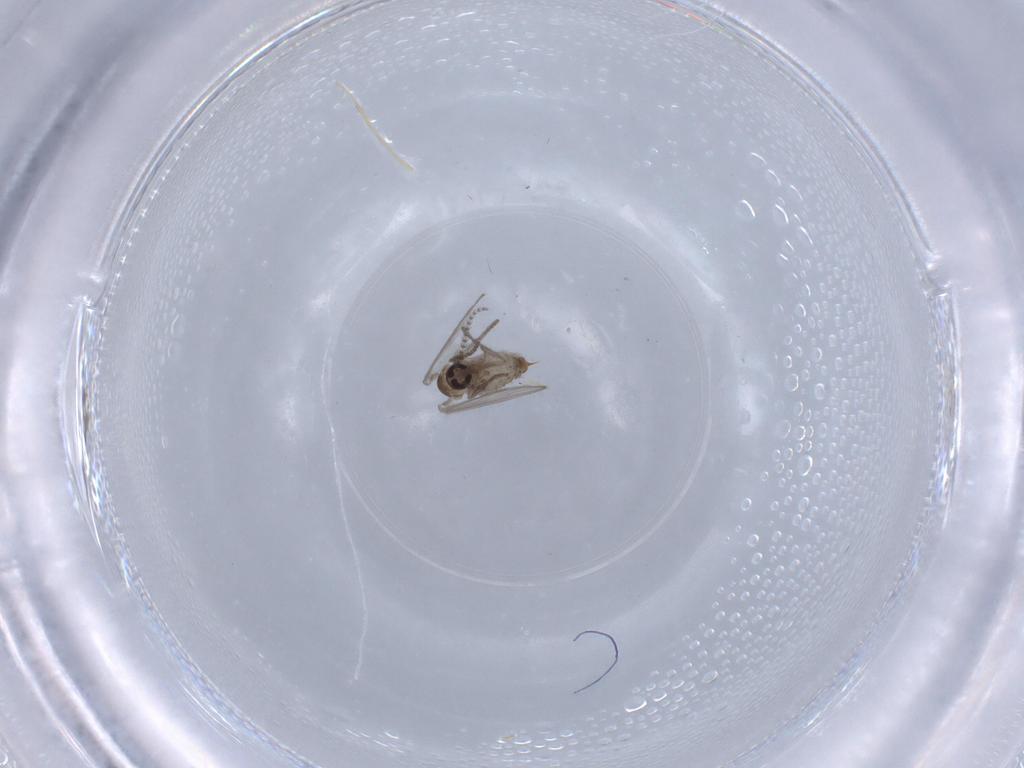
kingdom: Animalia
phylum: Arthropoda
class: Insecta
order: Diptera
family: Psychodidae
